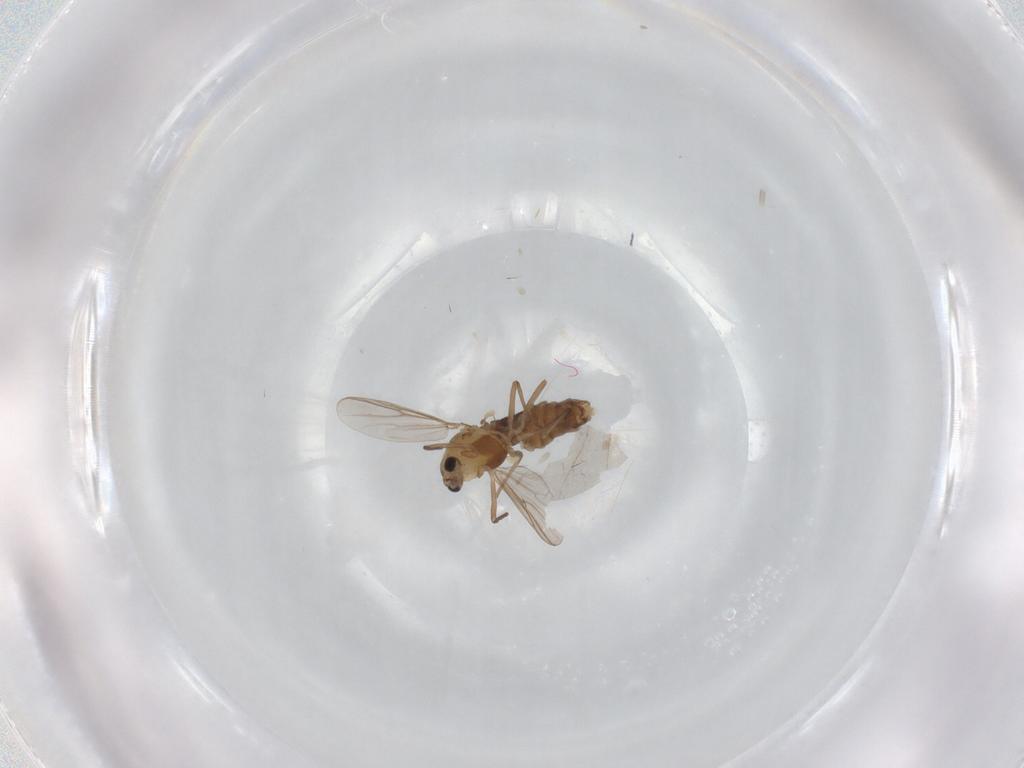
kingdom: Animalia
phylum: Arthropoda
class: Insecta
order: Diptera
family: Chironomidae
